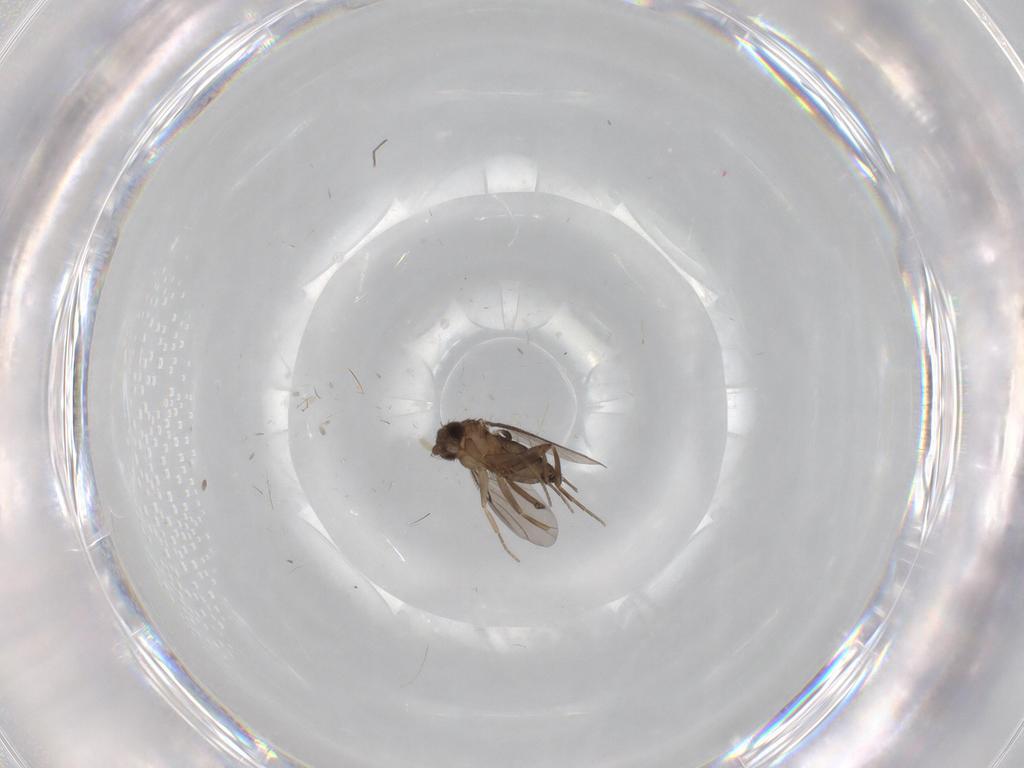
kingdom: Animalia
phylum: Arthropoda
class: Insecta
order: Diptera
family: Phoridae
